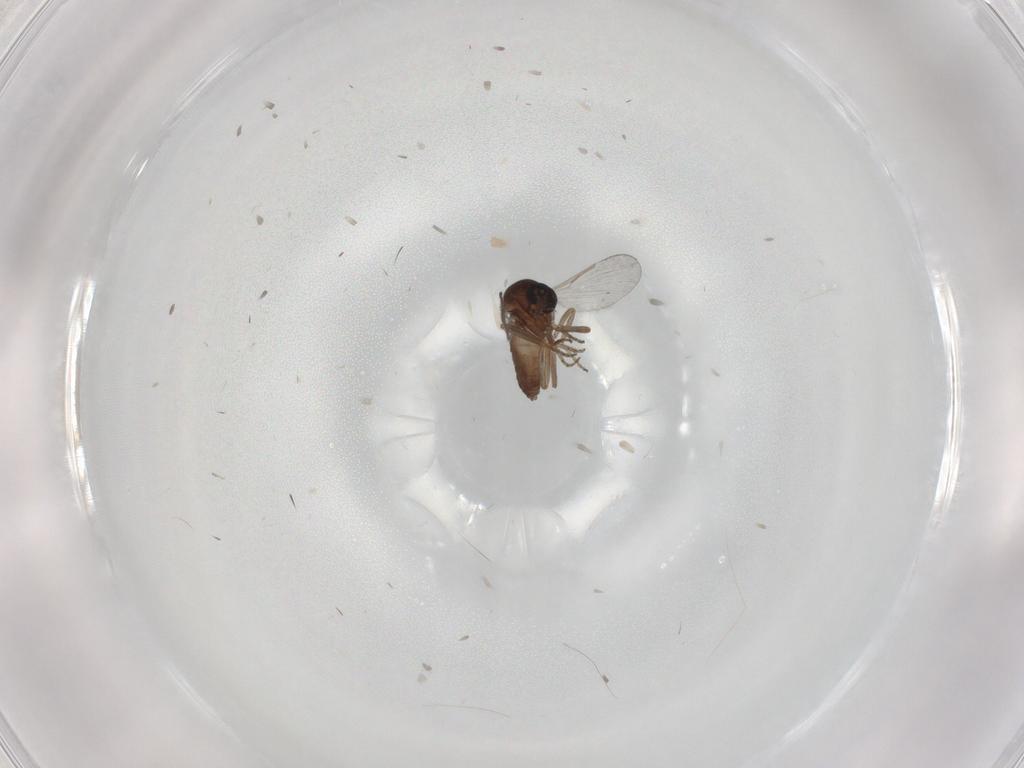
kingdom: Animalia
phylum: Arthropoda
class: Insecta
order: Diptera
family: Ceratopogonidae
